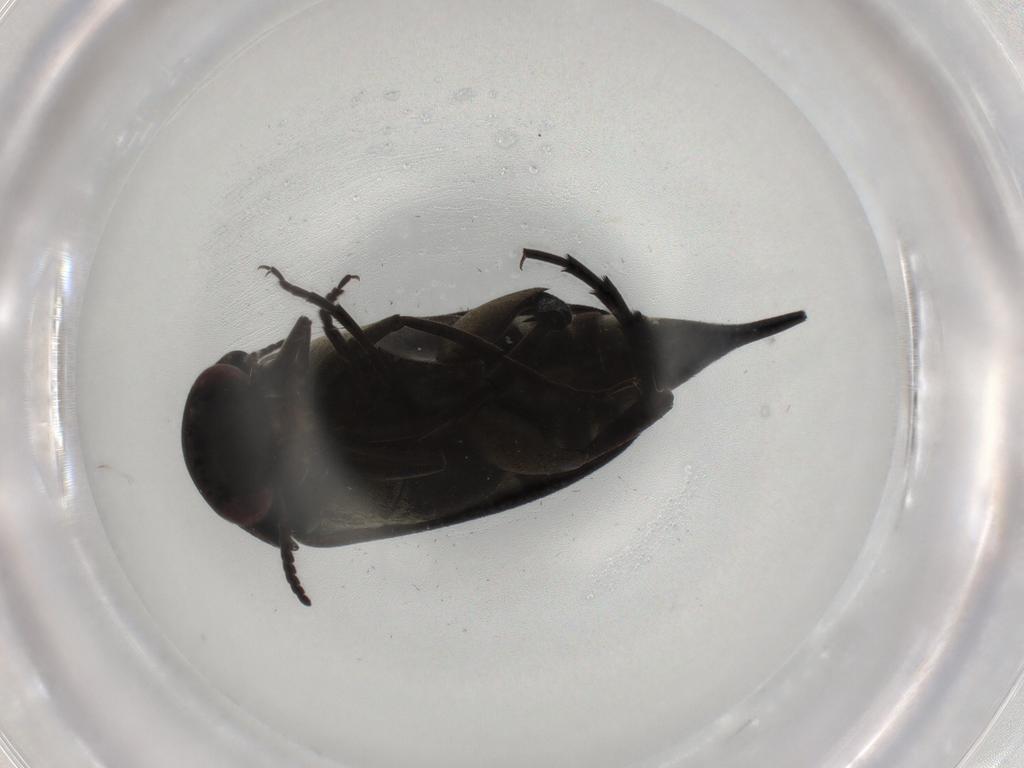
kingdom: Animalia
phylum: Arthropoda
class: Insecta
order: Coleoptera
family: Mordellidae
